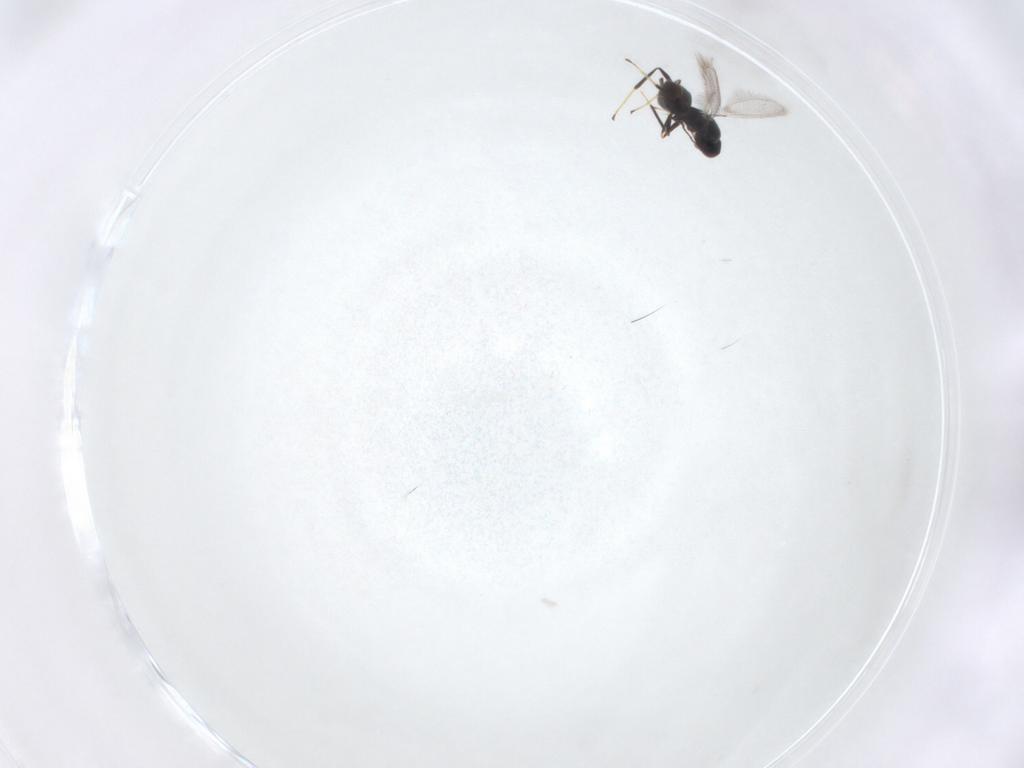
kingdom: Animalia
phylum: Arthropoda
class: Insecta
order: Hymenoptera
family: Mymaridae
